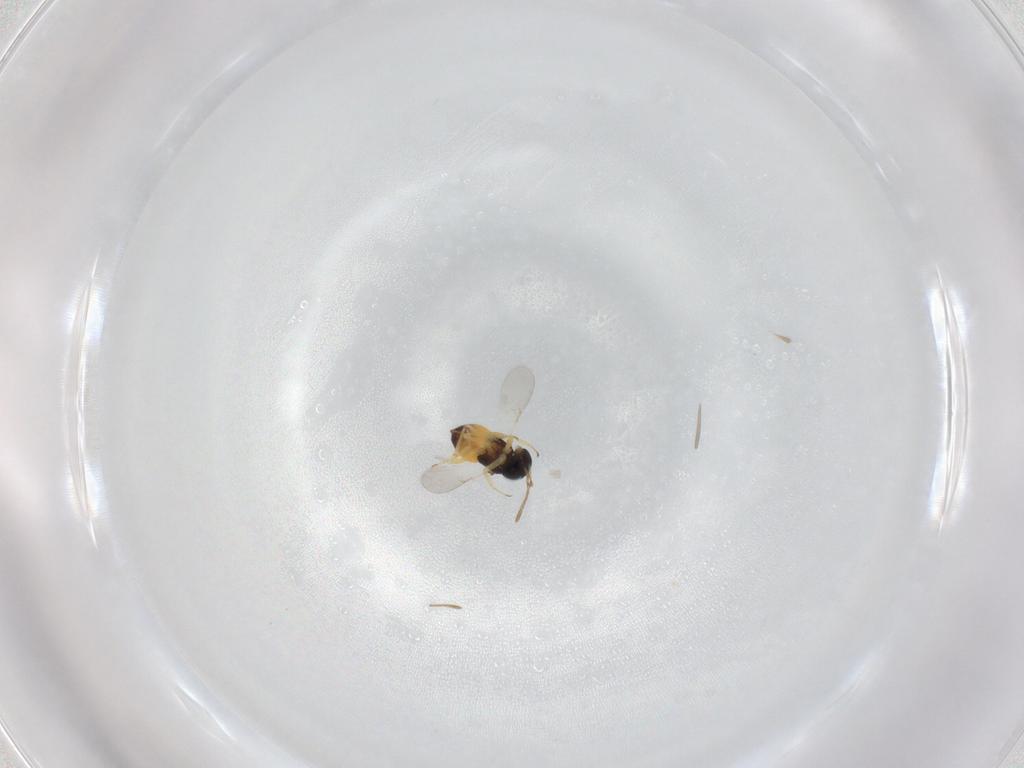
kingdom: Animalia
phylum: Arthropoda
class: Insecta
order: Hymenoptera
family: Encyrtidae
